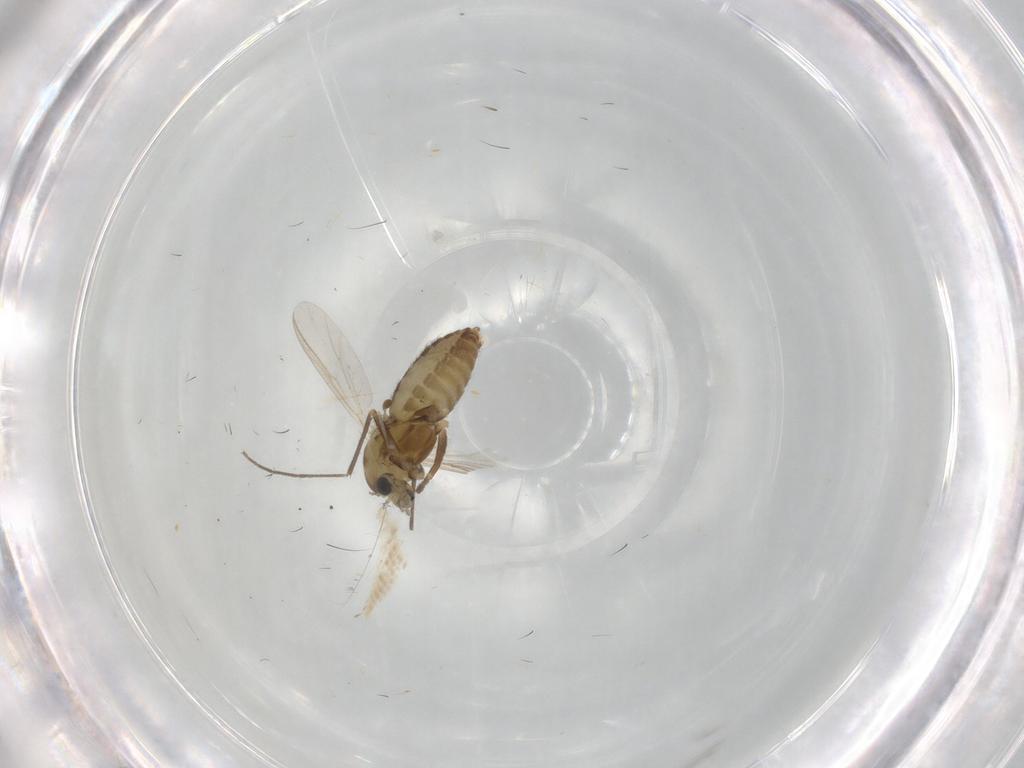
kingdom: Animalia
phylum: Arthropoda
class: Insecta
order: Diptera
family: Chironomidae
